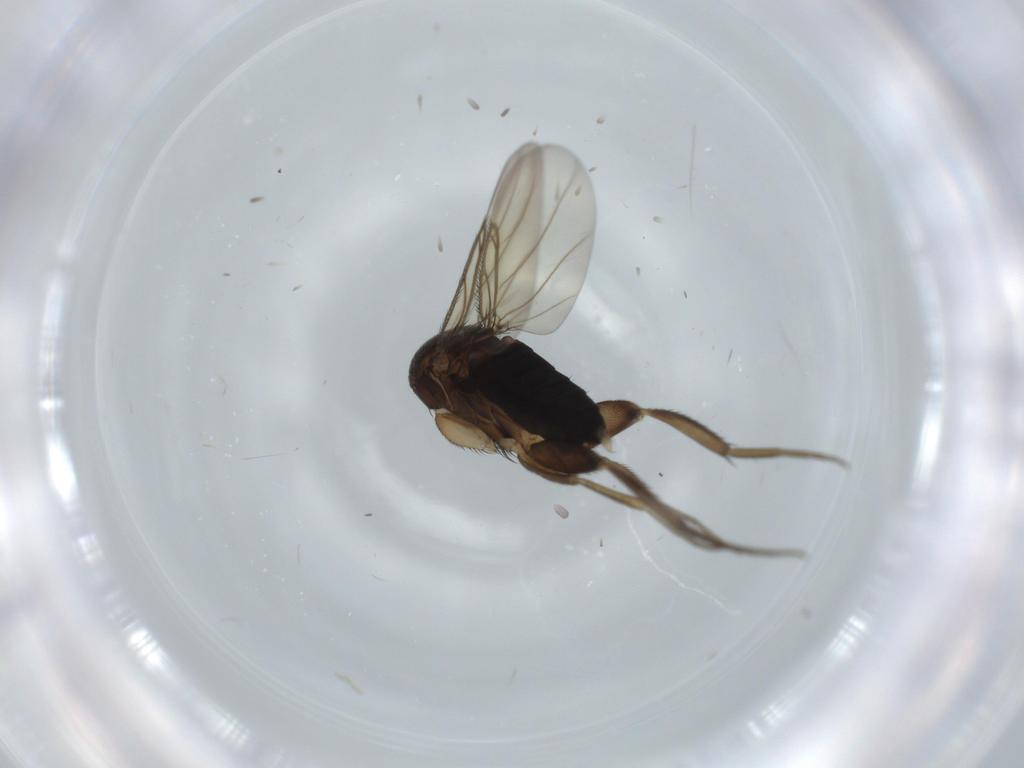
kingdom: Animalia
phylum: Arthropoda
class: Insecta
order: Diptera
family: Phoridae
